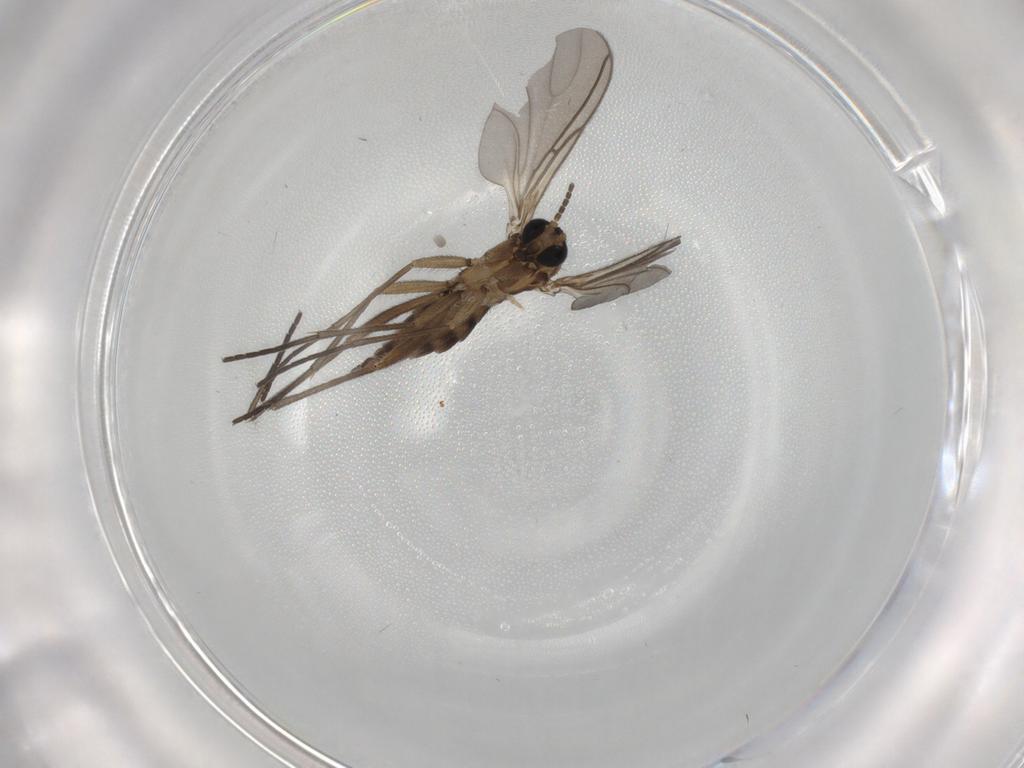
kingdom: Animalia
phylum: Arthropoda
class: Insecta
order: Diptera
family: Sciaridae
